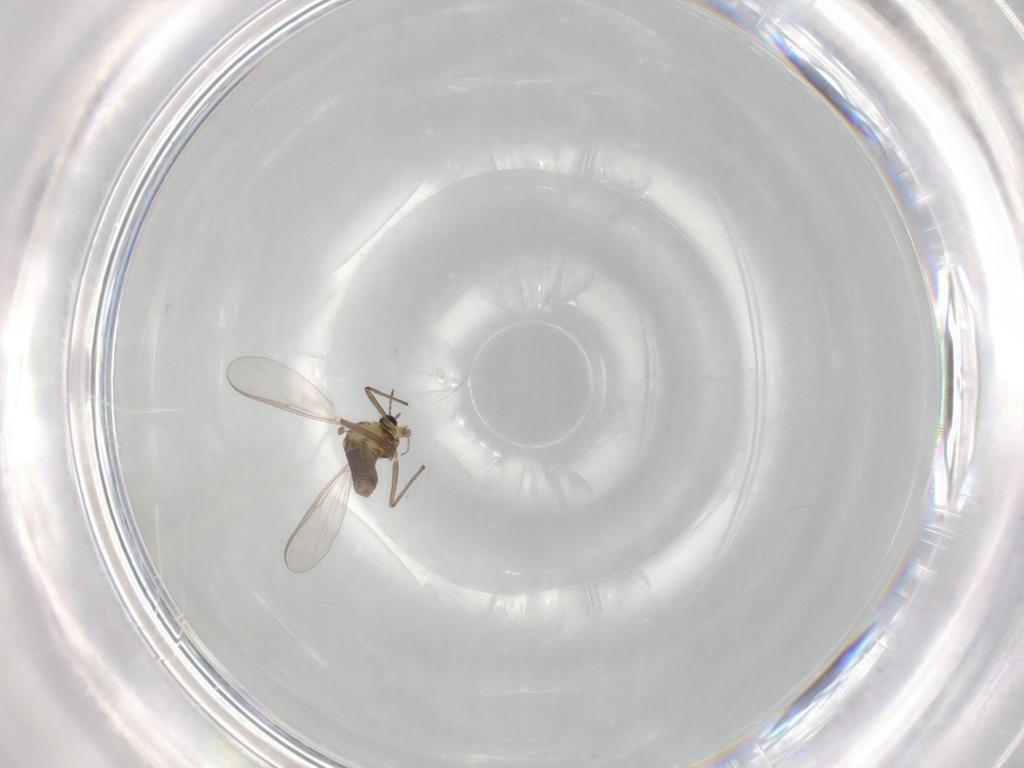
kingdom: Animalia
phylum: Arthropoda
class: Insecta
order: Diptera
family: Chironomidae
